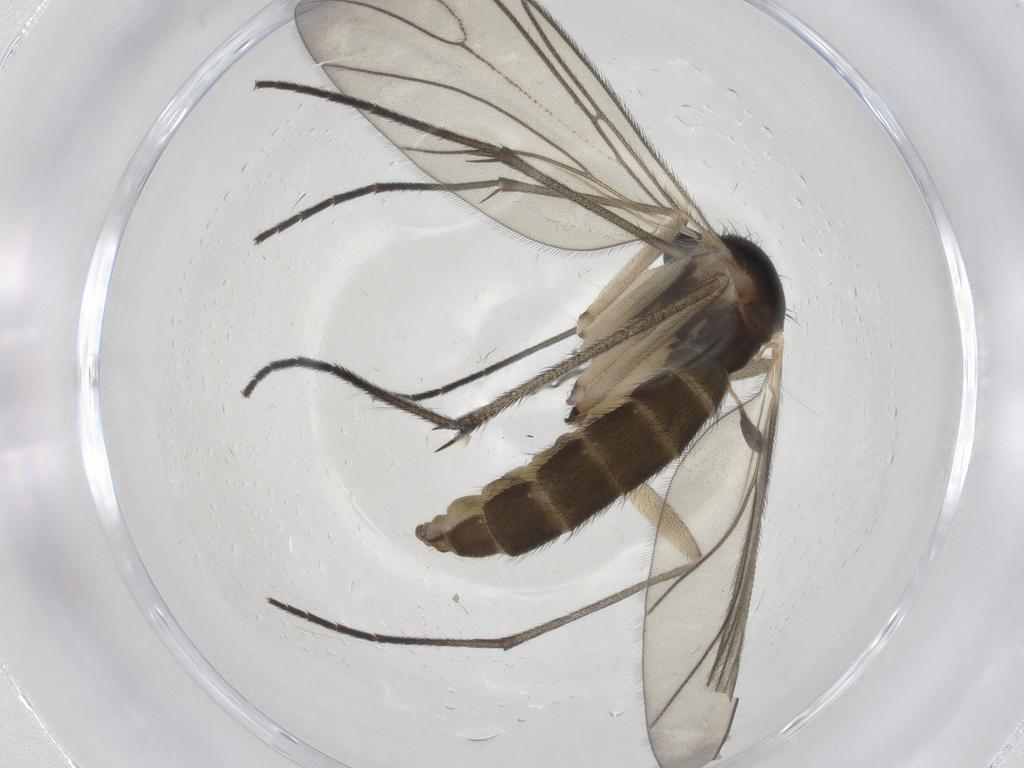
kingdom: Animalia
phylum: Arthropoda
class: Insecta
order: Diptera
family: Sciaridae
